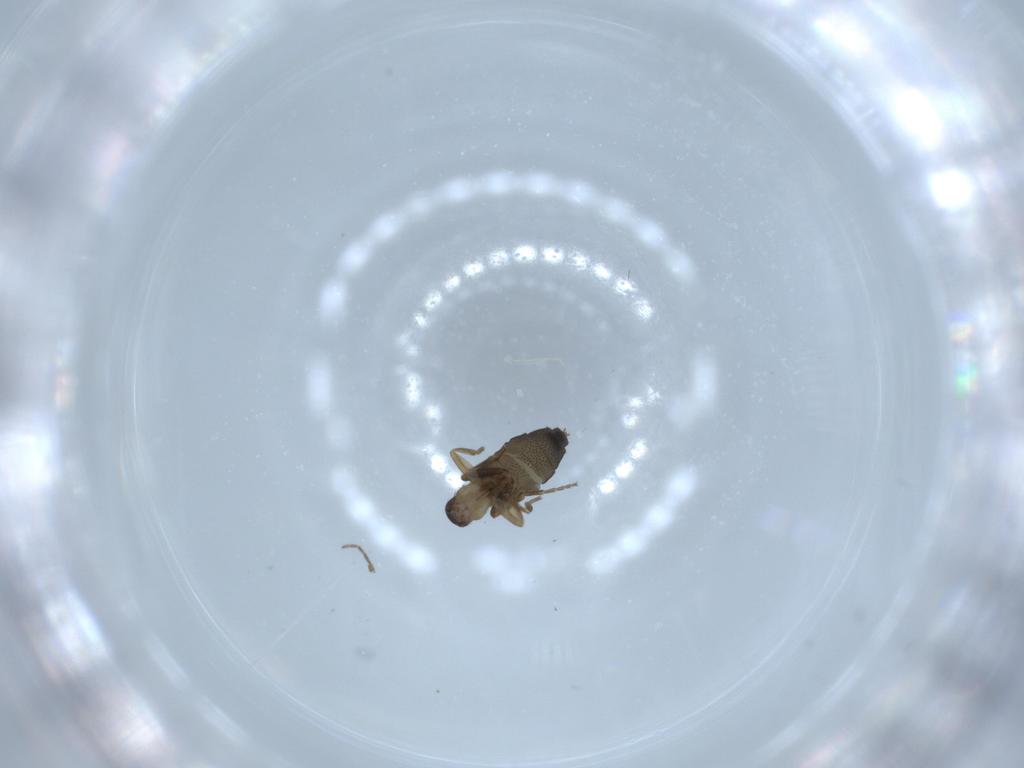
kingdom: Animalia
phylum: Arthropoda
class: Insecta
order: Diptera
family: Phoridae
